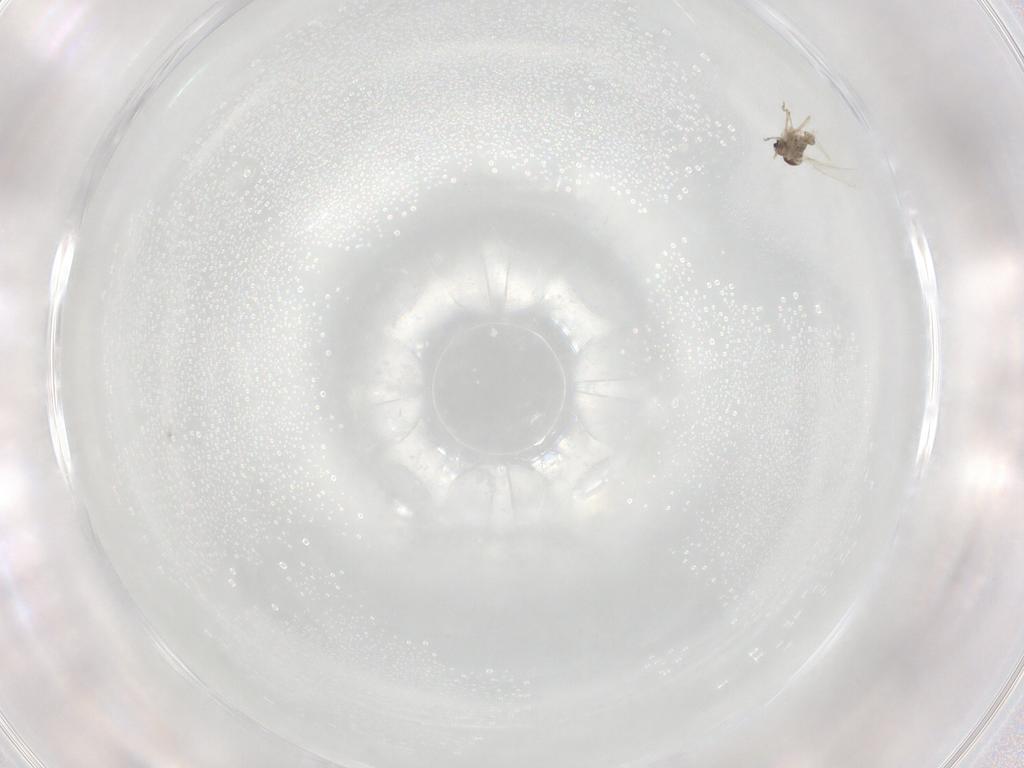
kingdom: Animalia
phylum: Arthropoda
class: Insecta
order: Diptera
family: Cecidomyiidae
